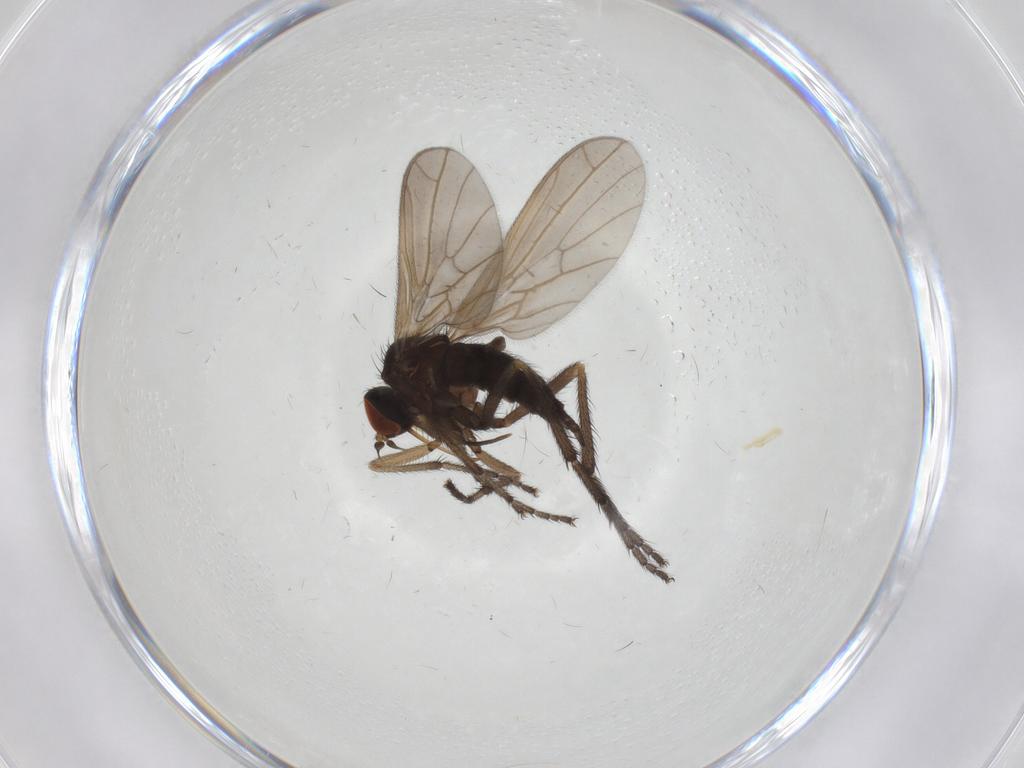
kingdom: Animalia
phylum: Arthropoda
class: Insecta
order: Diptera
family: Empididae
